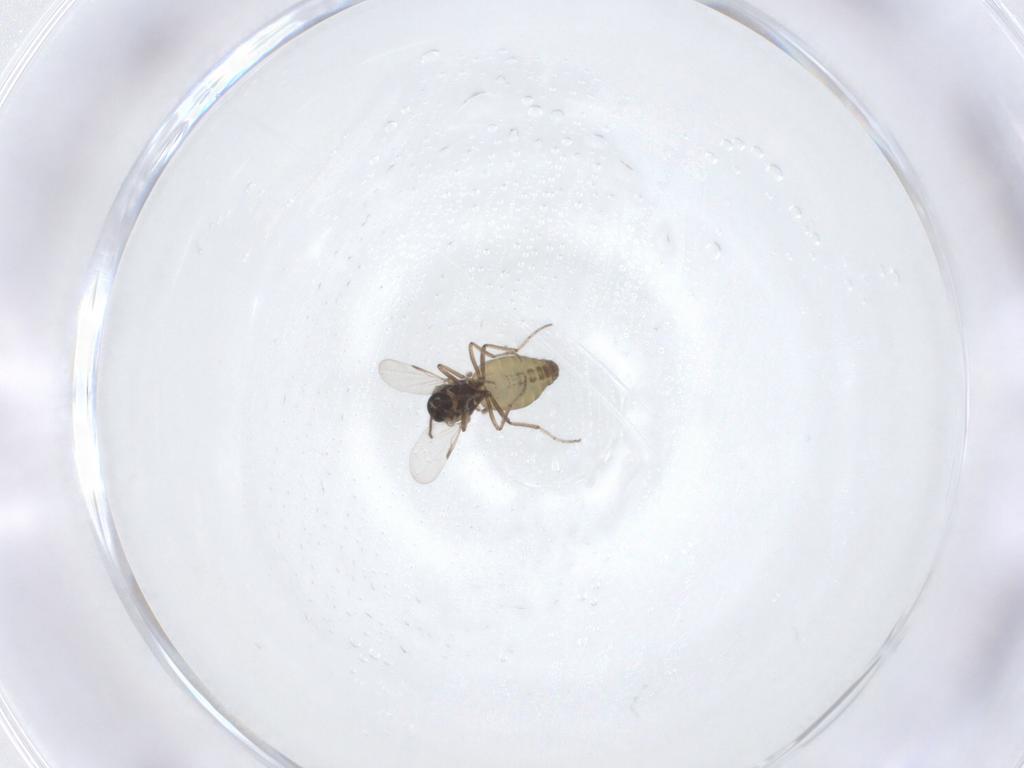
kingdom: Animalia
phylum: Arthropoda
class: Insecta
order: Diptera
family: Ceratopogonidae
